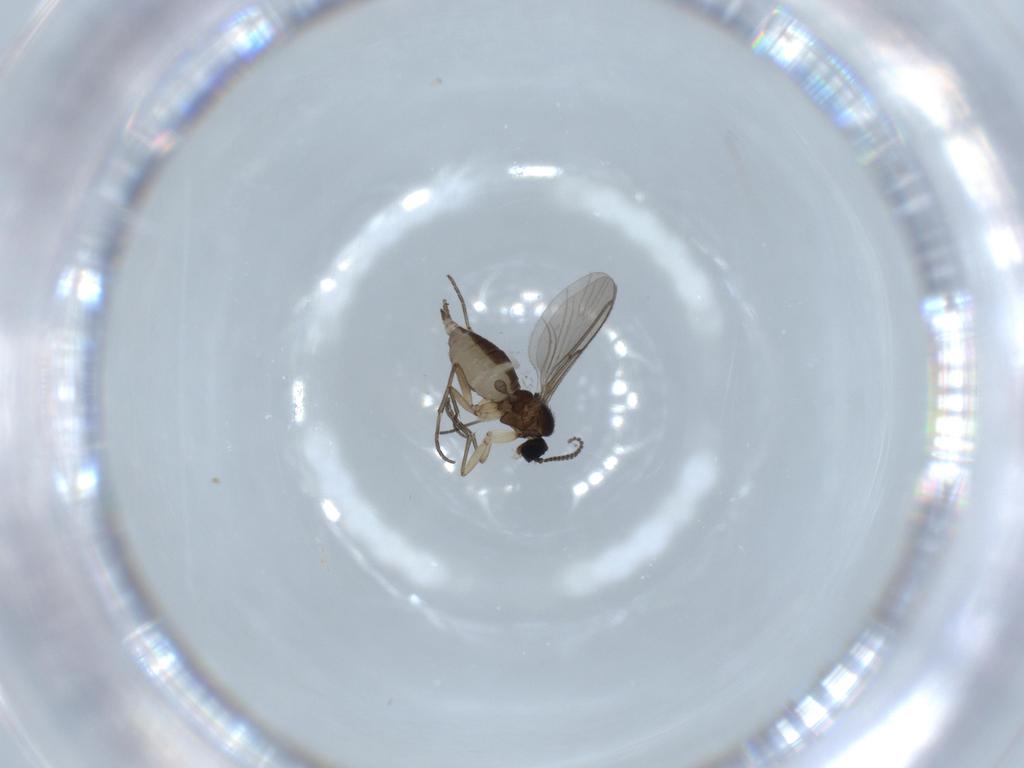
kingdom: Animalia
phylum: Arthropoda
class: Insecta
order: Diptera
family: Sciaridae
